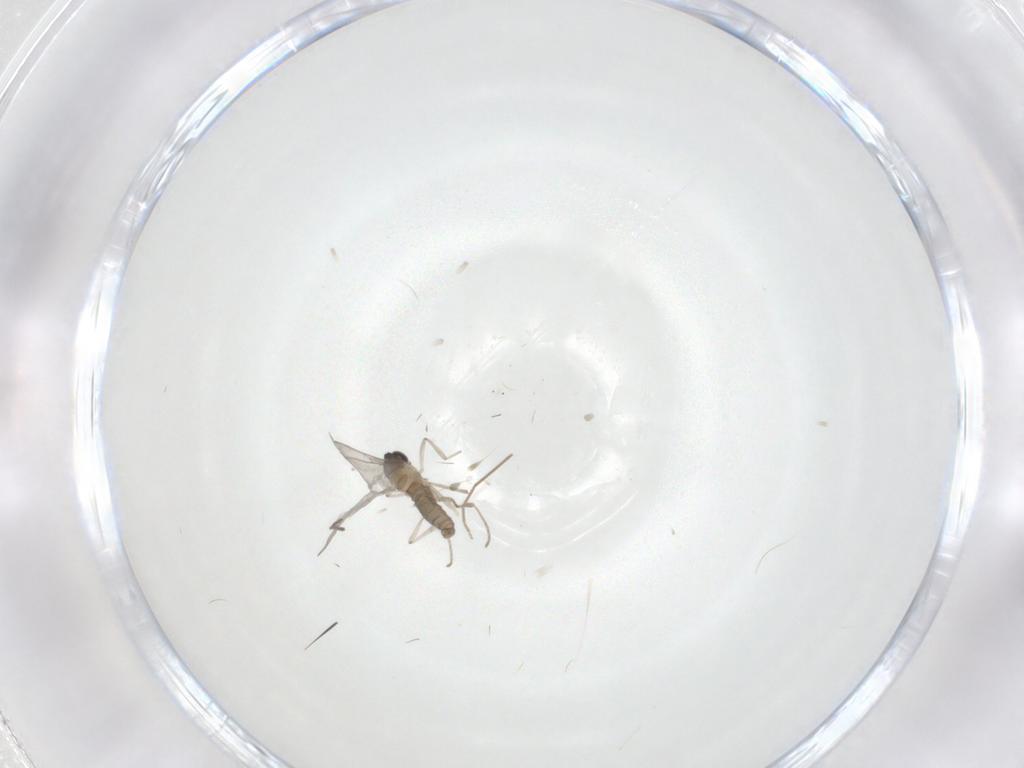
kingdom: Animalia
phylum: Arthropoda
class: Insecta
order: Diptera
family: Cecidomyiidae
